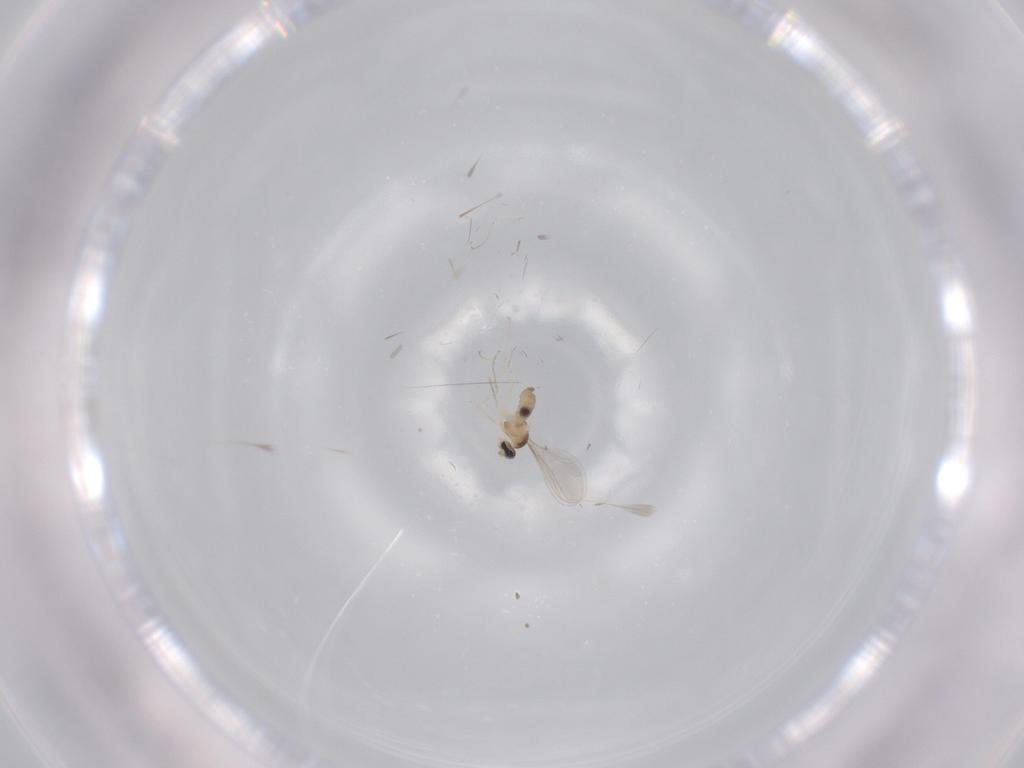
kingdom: Animalia
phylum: Arthropoda
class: Insecta
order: Diptera
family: Cecidomyiidae
